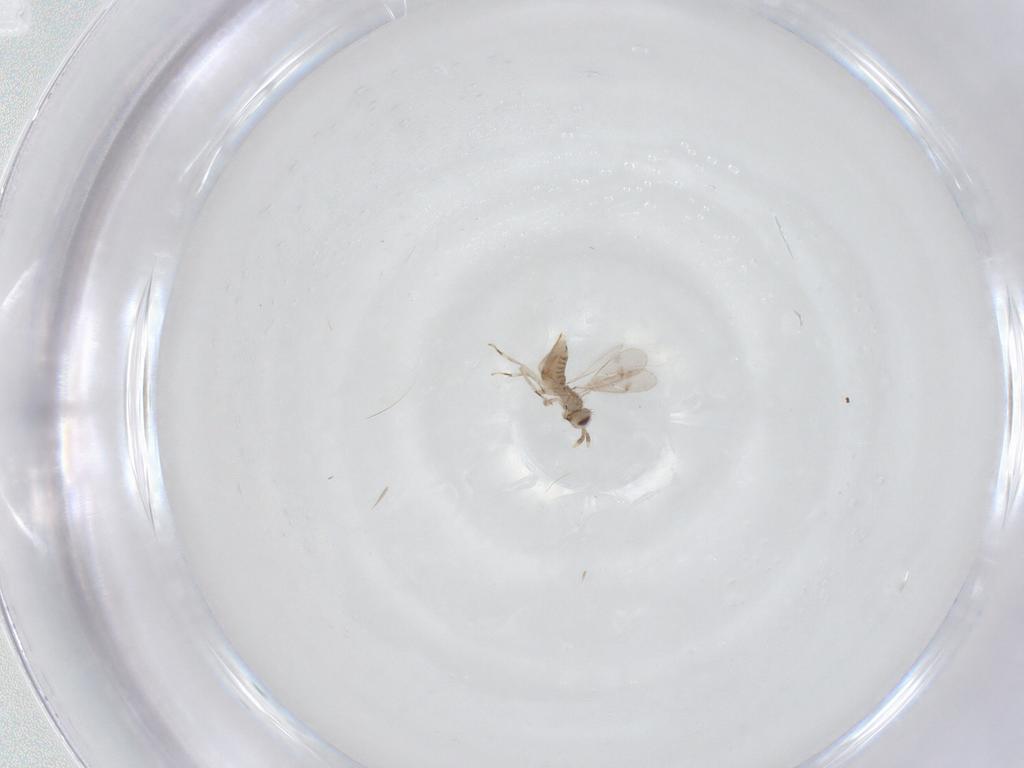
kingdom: Animalia
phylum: Arthropoda
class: Insecta
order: Hymenoptera
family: Aphelinidae
